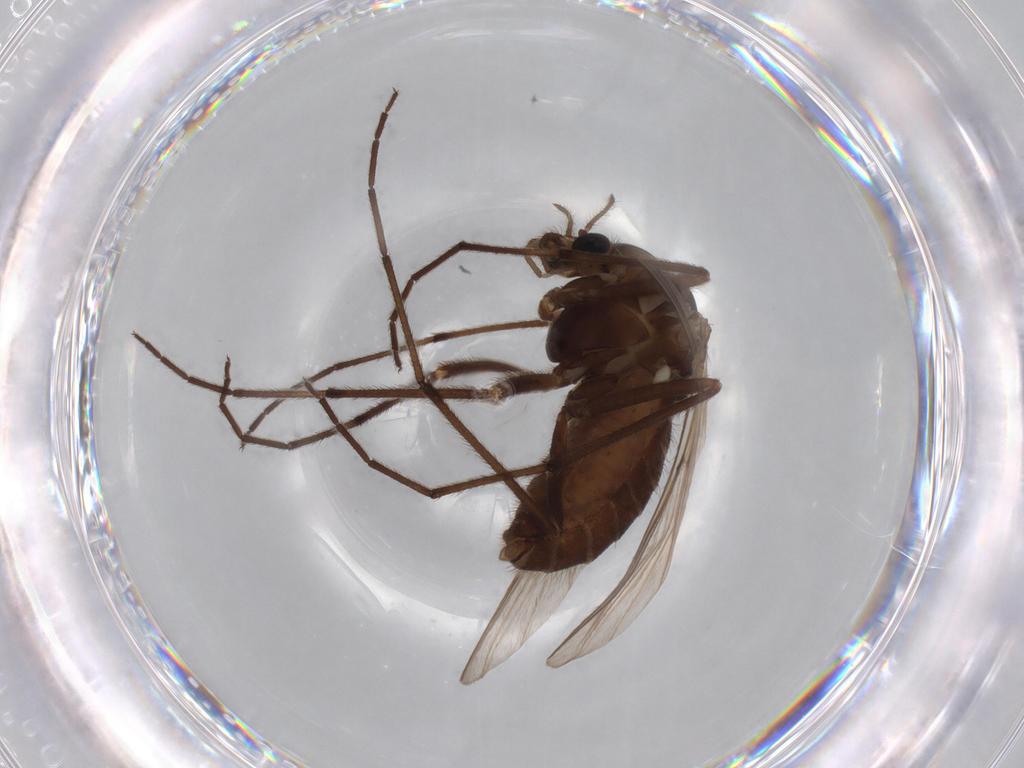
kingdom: Animalia
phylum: Arthropoda
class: Insecta
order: Diptera
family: Chironomidae
